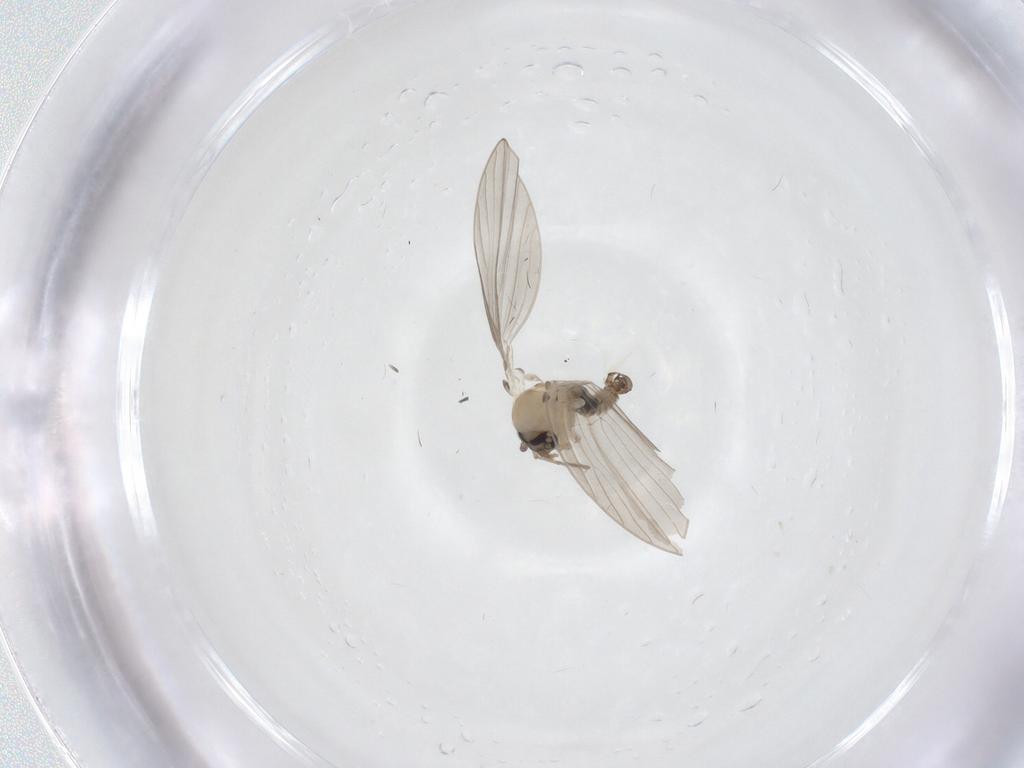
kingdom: Animalia
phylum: Arthropoda
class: Insecta
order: Diptera
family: Psychodidae
